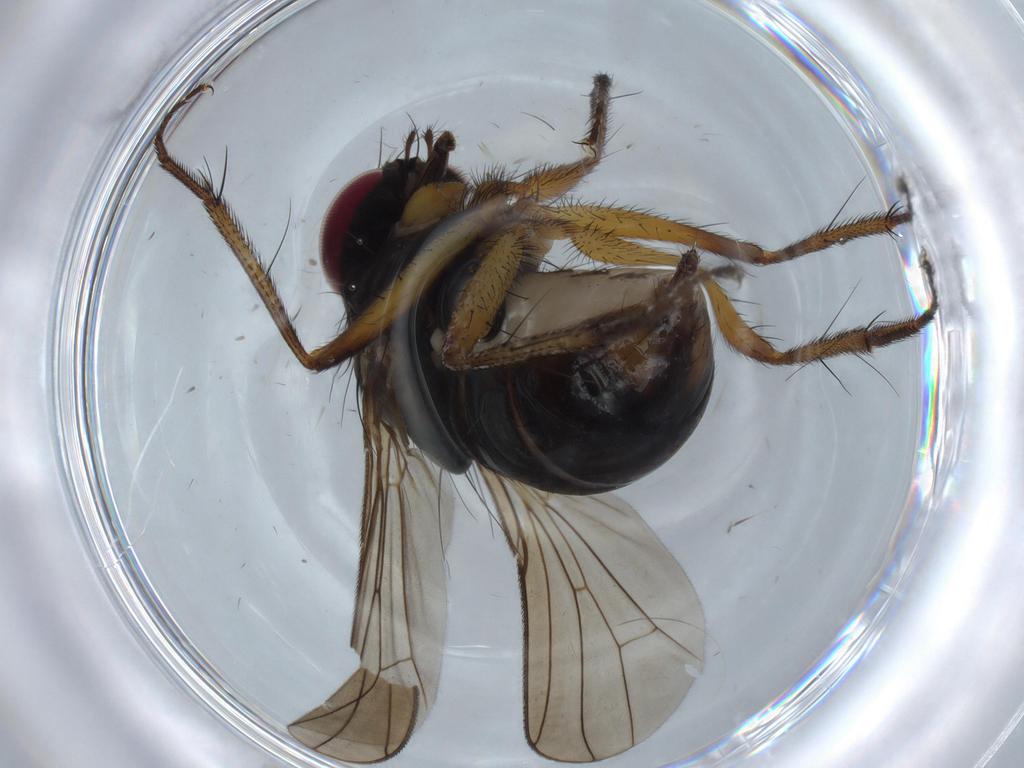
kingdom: Animalia
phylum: Arthropoda
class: Insecta
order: Diptera
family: Anthomyiidae
